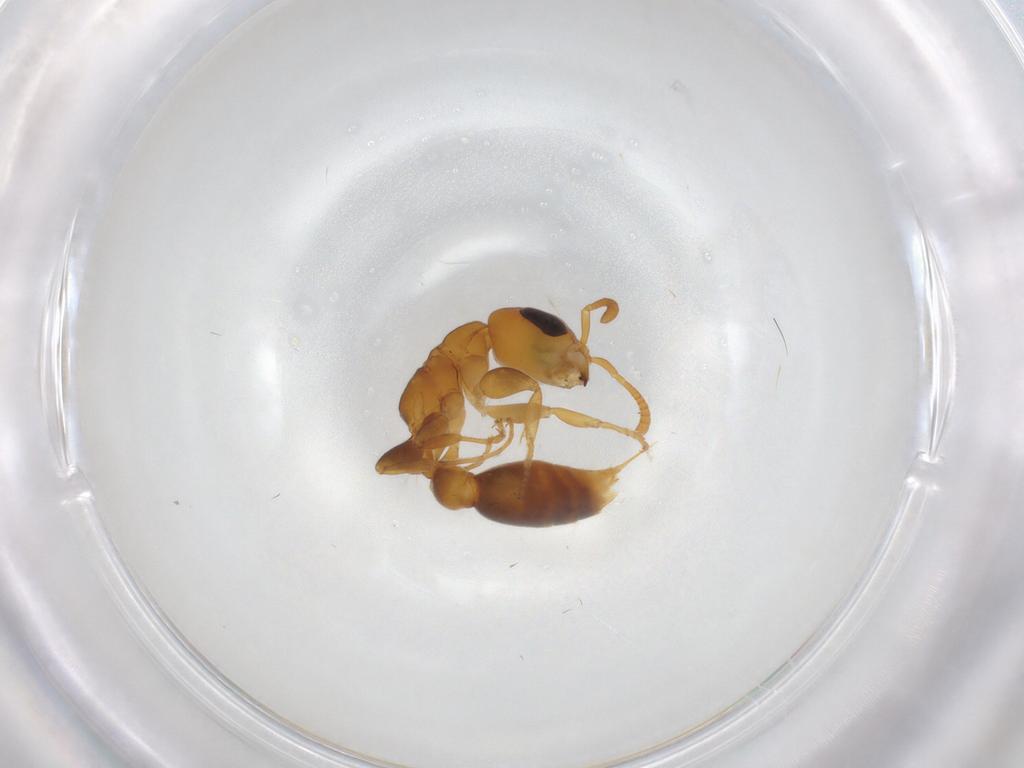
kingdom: Animalia
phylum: Arthropoda
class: Insecta
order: Hymenoptera
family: Formicidae
